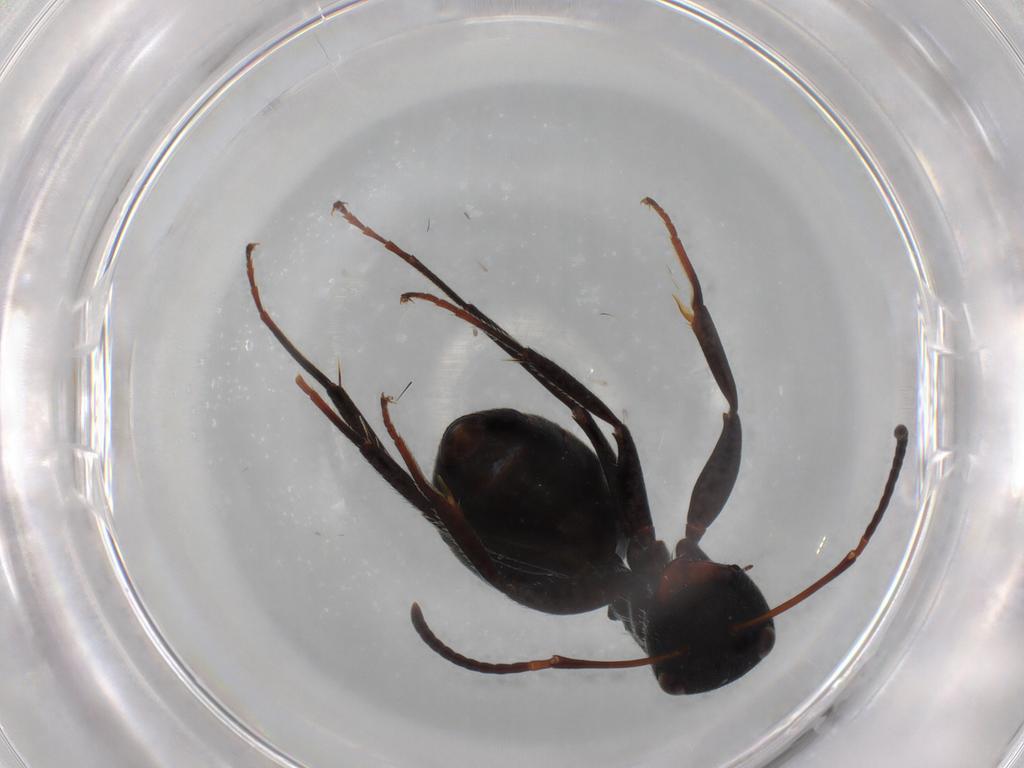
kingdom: Animalia
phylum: Arthropoda
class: Insecta
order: Hymenoptera
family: Formicidae
